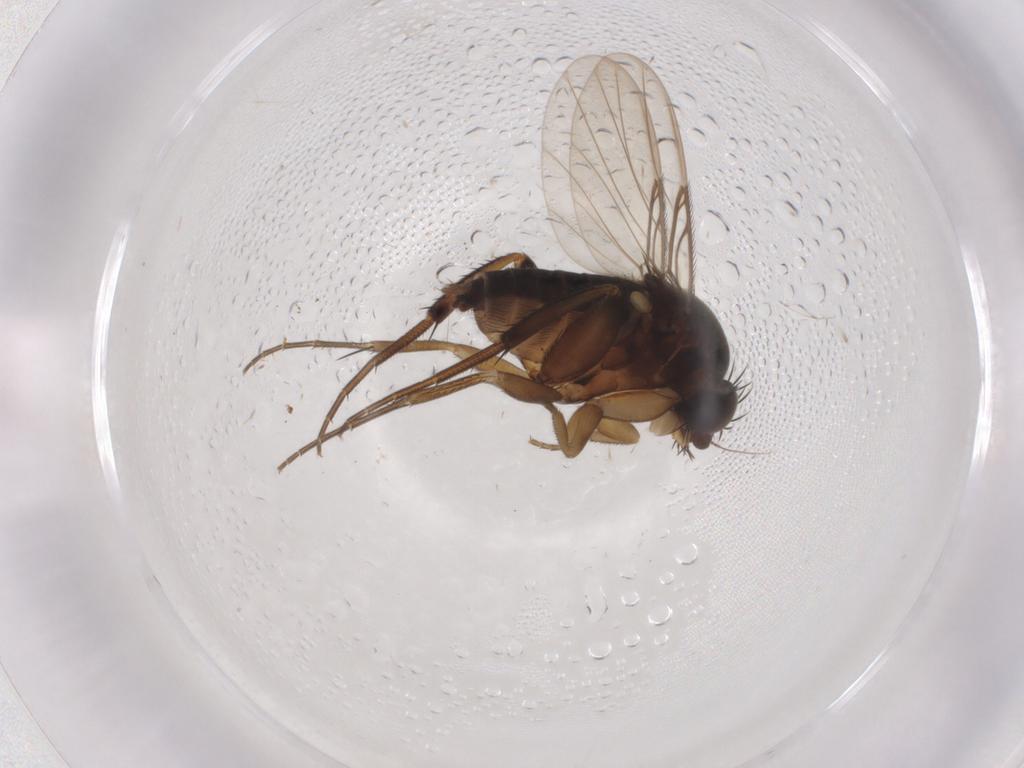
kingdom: Animalia
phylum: Arthropoda
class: Insecta
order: Diptera
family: Phoridae
